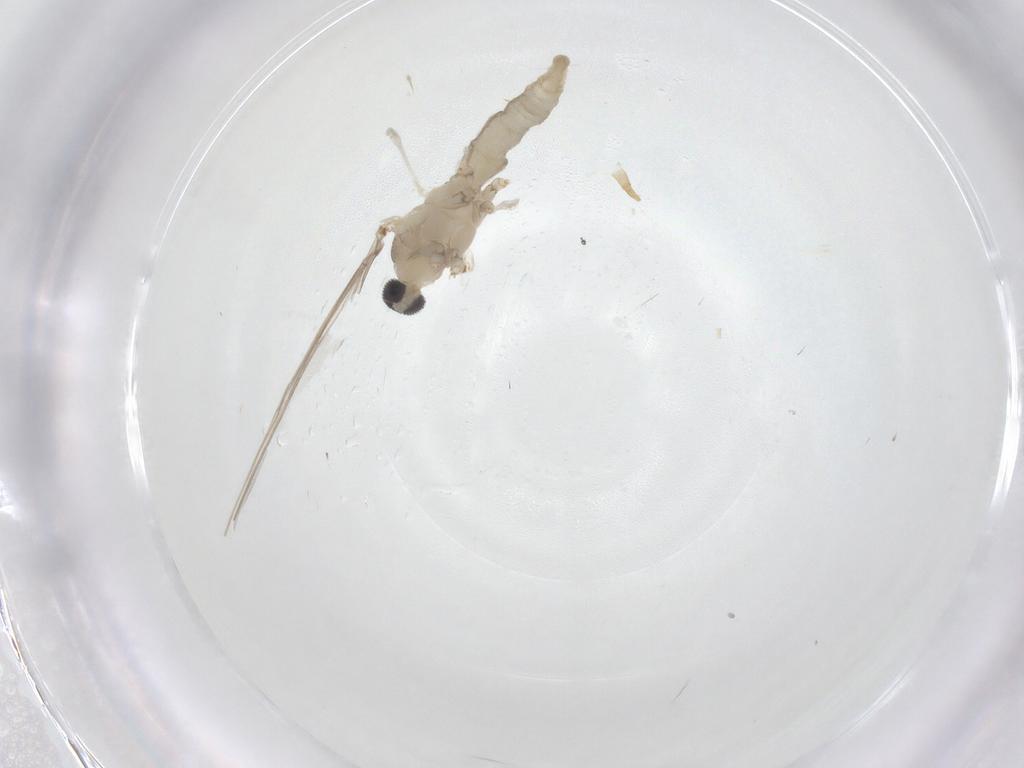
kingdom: Animalia
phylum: Arthropoda
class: Insecta
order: Diptera
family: Cecidomyiidae
